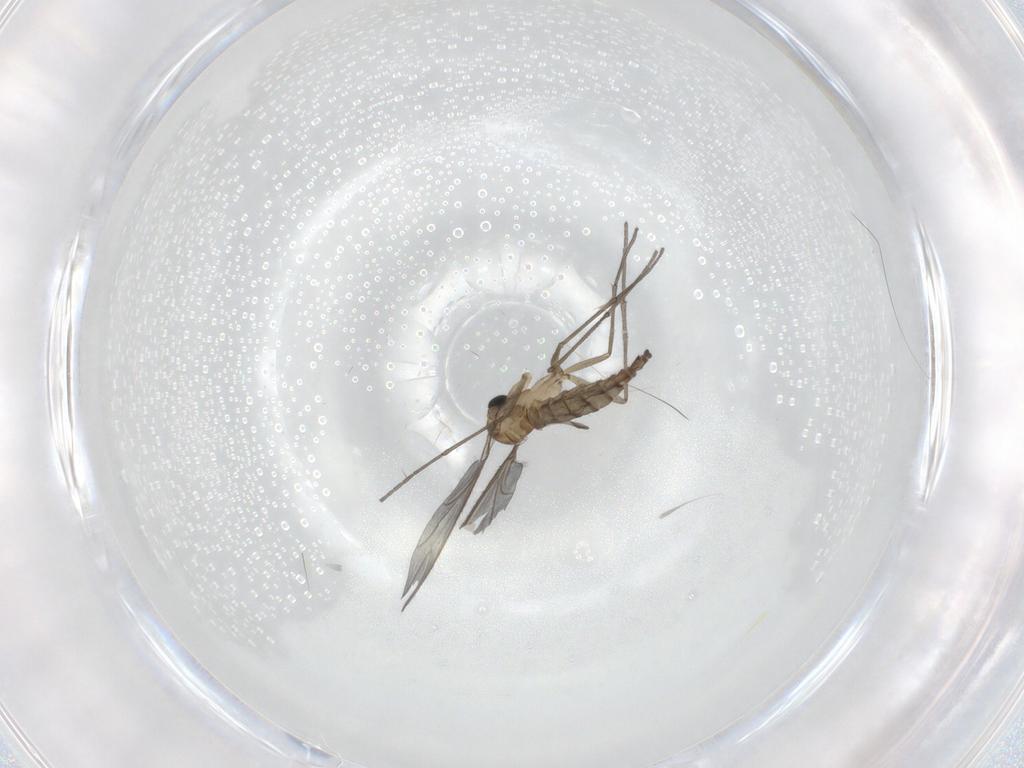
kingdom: Animalia
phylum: Arthropoda
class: Insecta
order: Diptera
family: Sciaridae
